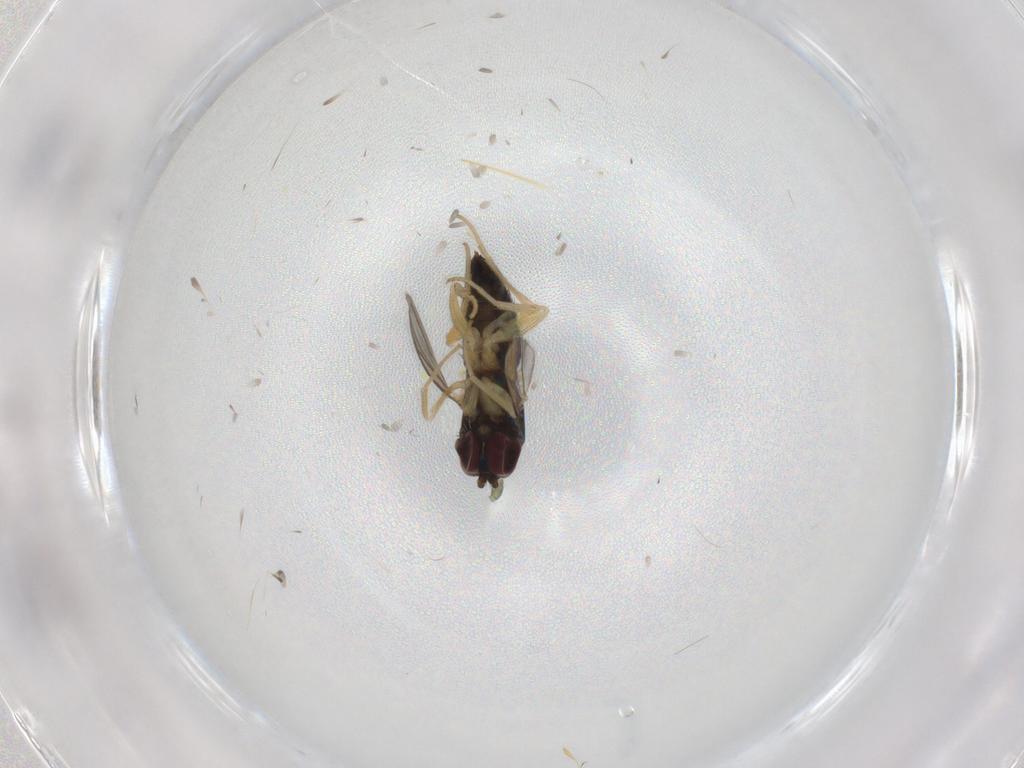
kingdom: Animalia
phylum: Arthropoda
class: Insecta
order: Diptera
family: Dolichopodidae
